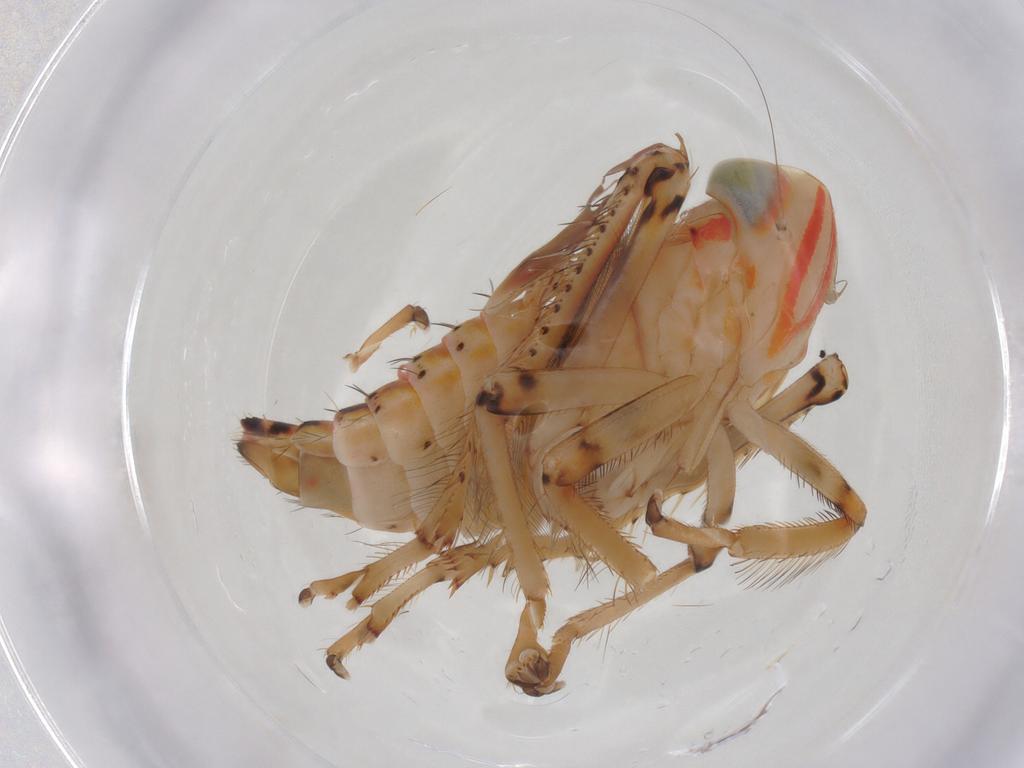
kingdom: Animalia
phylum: Arthropoda
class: Insecta
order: Hemiptera
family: Cicadellidae
